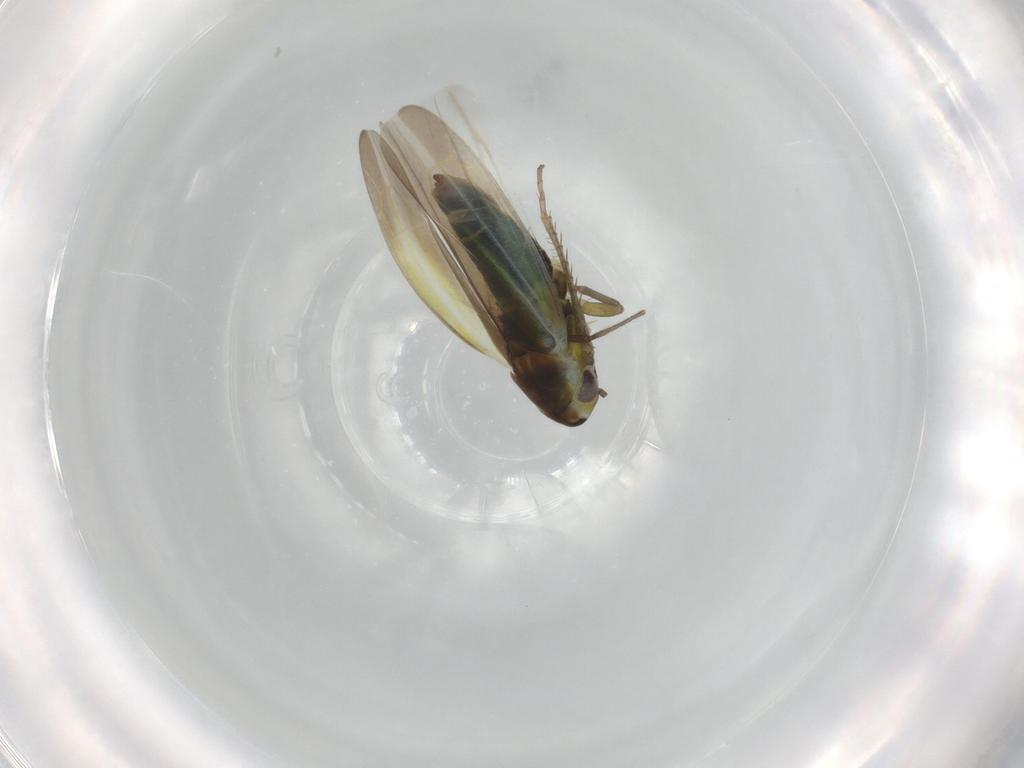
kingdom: Animalia
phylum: Arthropoda
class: Insecta
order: Hemiptera
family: Cicadellidae
